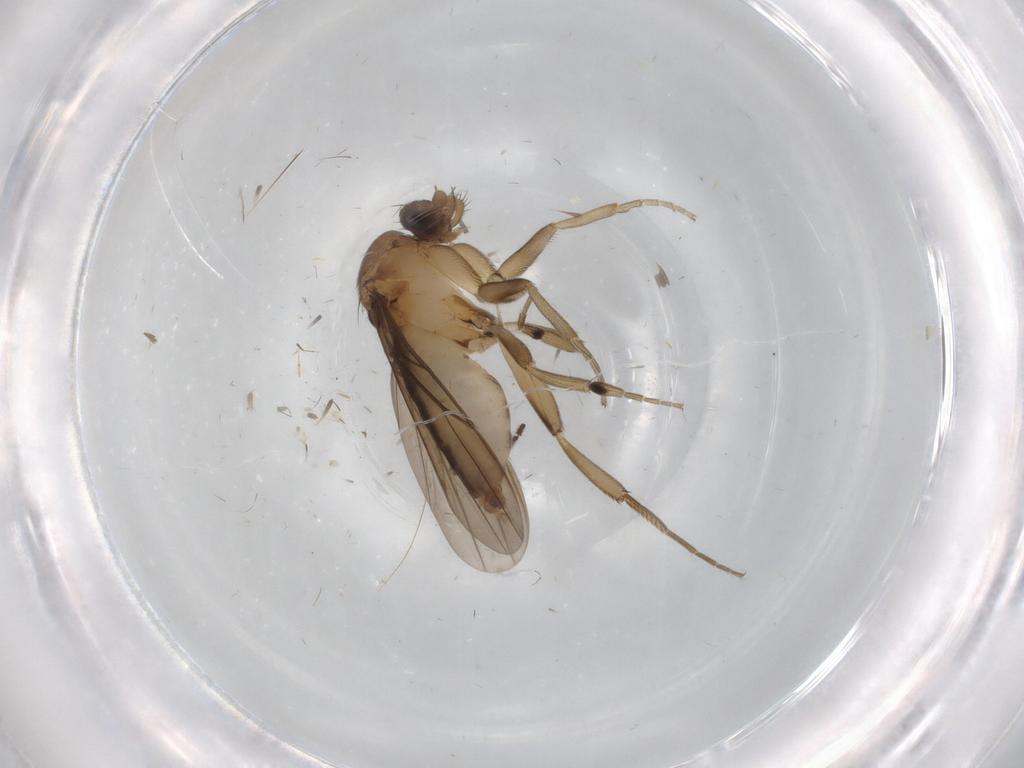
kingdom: Animalia
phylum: Arthropoda
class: Insecta
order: Diptera
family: Phoridae
